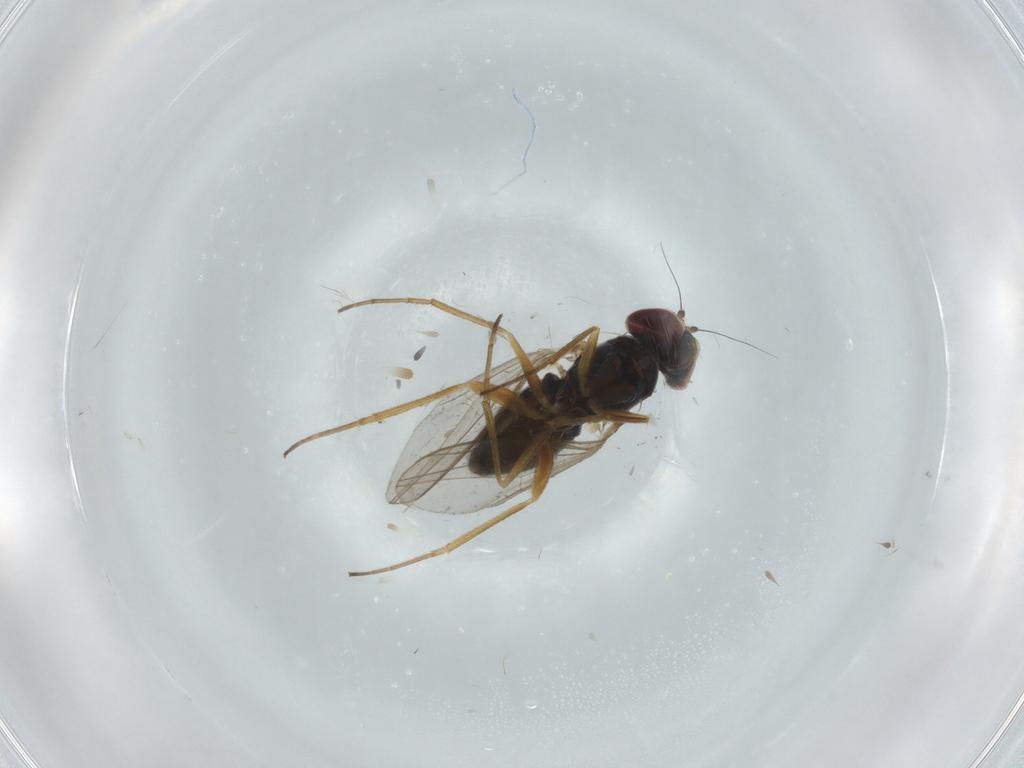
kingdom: Animalia
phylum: Arthropoda
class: Insecta
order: Diptera
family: Dolichopodidae
